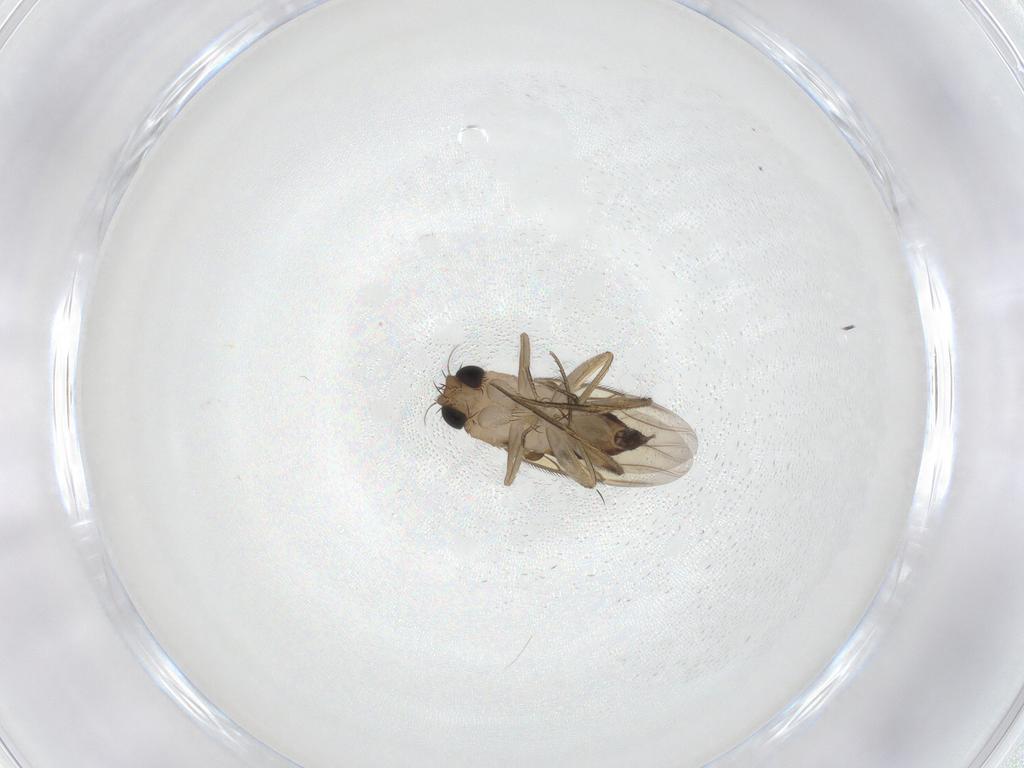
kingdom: Animalia
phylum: Arthropoda
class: Insecta
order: Diptera
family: Phoridae
